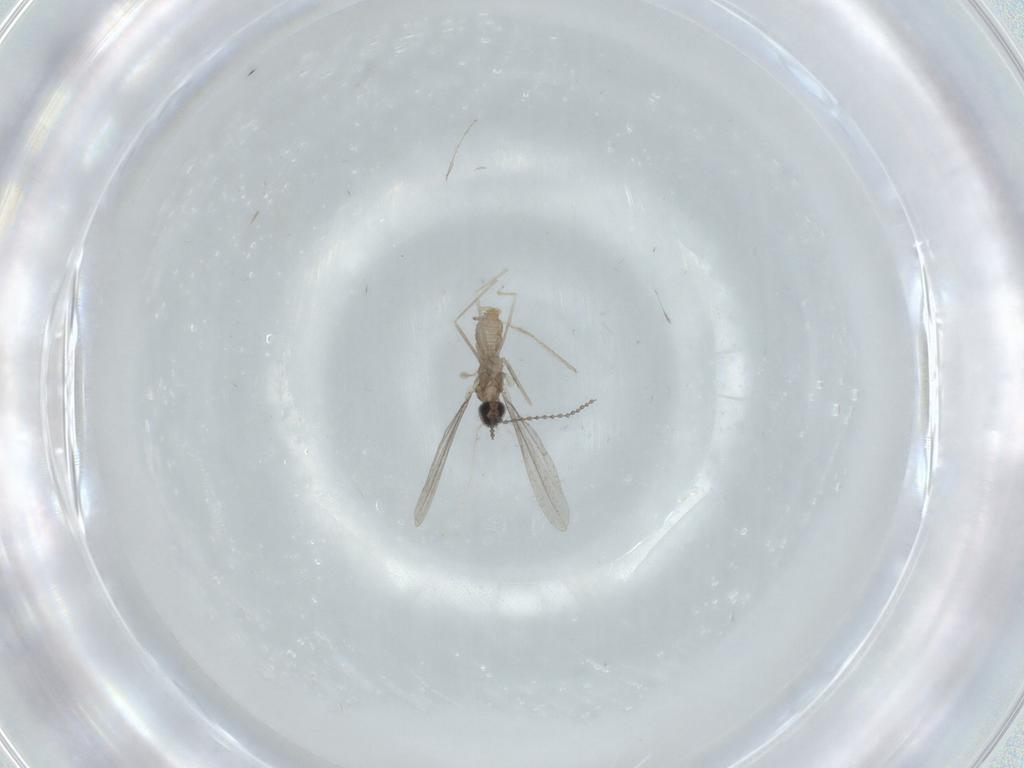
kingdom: Animalia
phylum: Arthropoda
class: Insecta
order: Diptera
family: Cecidomyiidae
